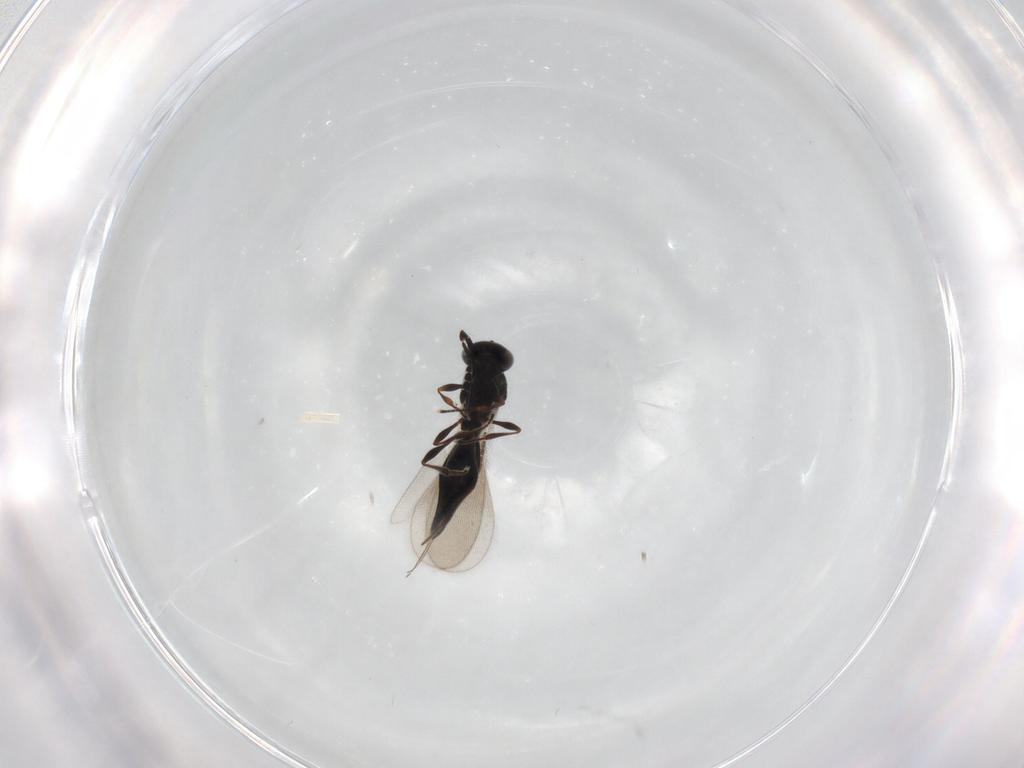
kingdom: Animalia
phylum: Arthropoda
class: Insecta
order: Hymenoptera
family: Platygastridae
